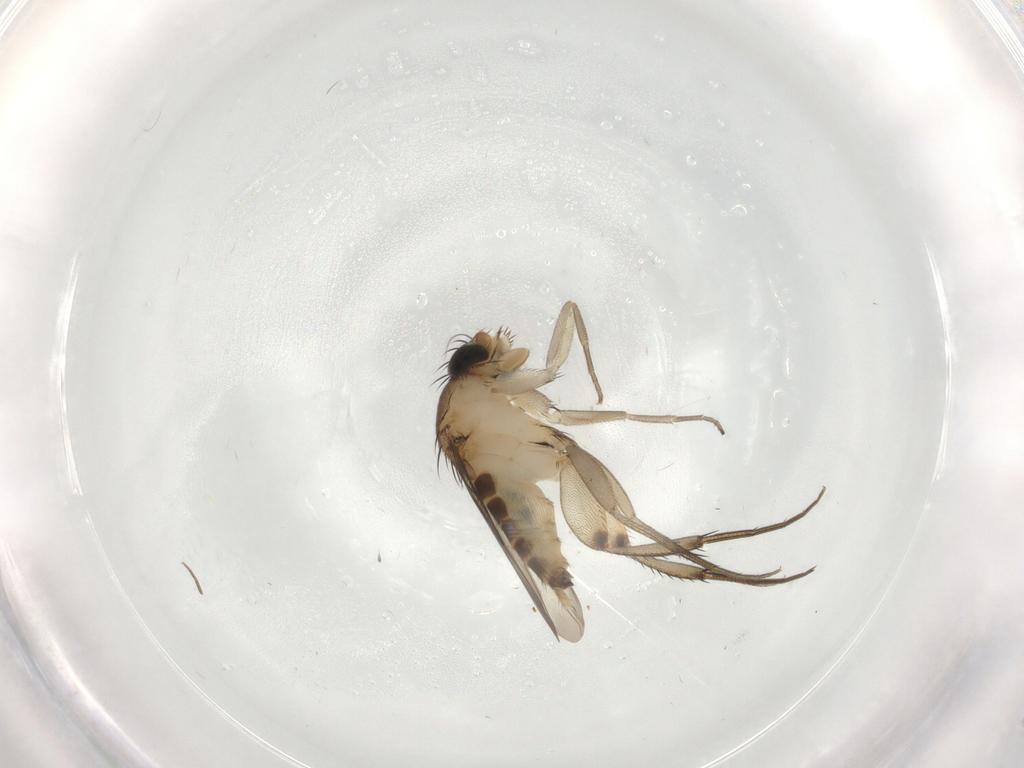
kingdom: Animalia
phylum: Arthropoda
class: Insecta
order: Diptera
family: Phoridae
